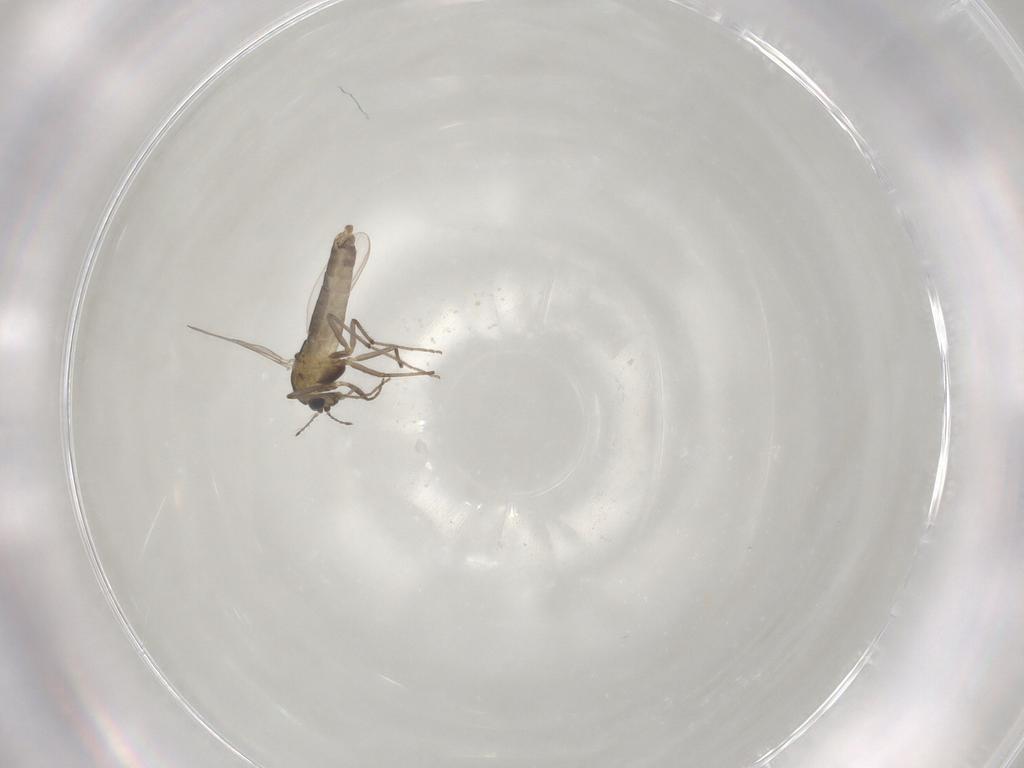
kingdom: Animalia
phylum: Arthropoda
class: Insecta
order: Diptera
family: Chironomidae
